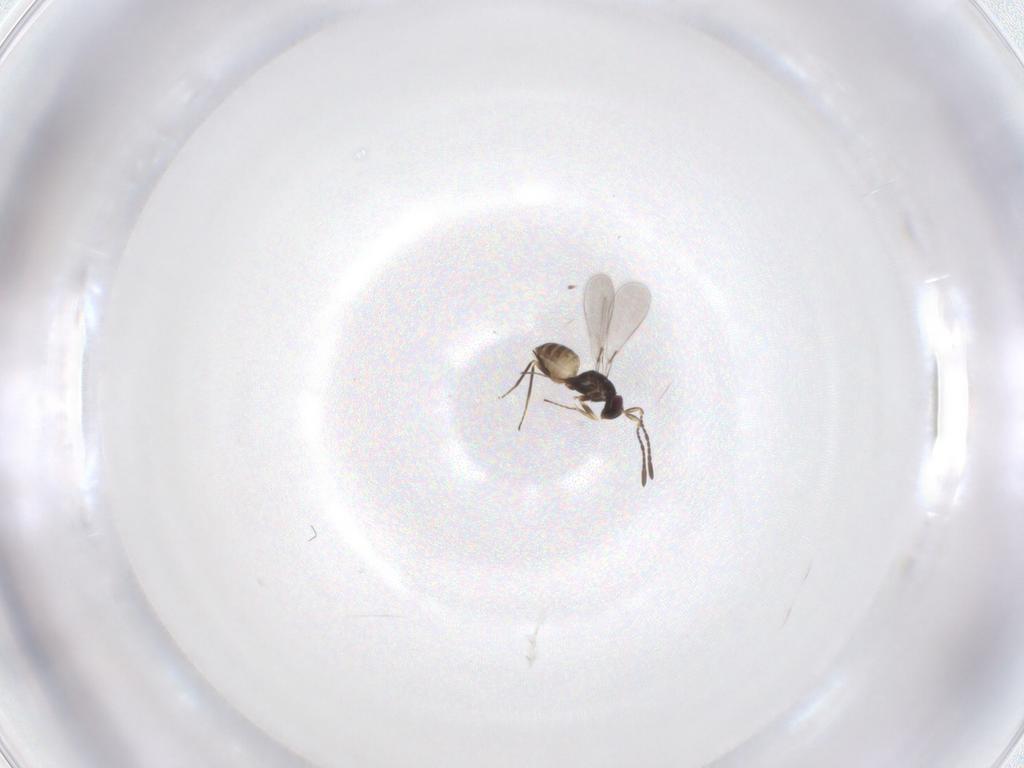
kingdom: Animalia
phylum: Arthropoda
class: Insecta
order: Hymenoptera
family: Mymaridae
